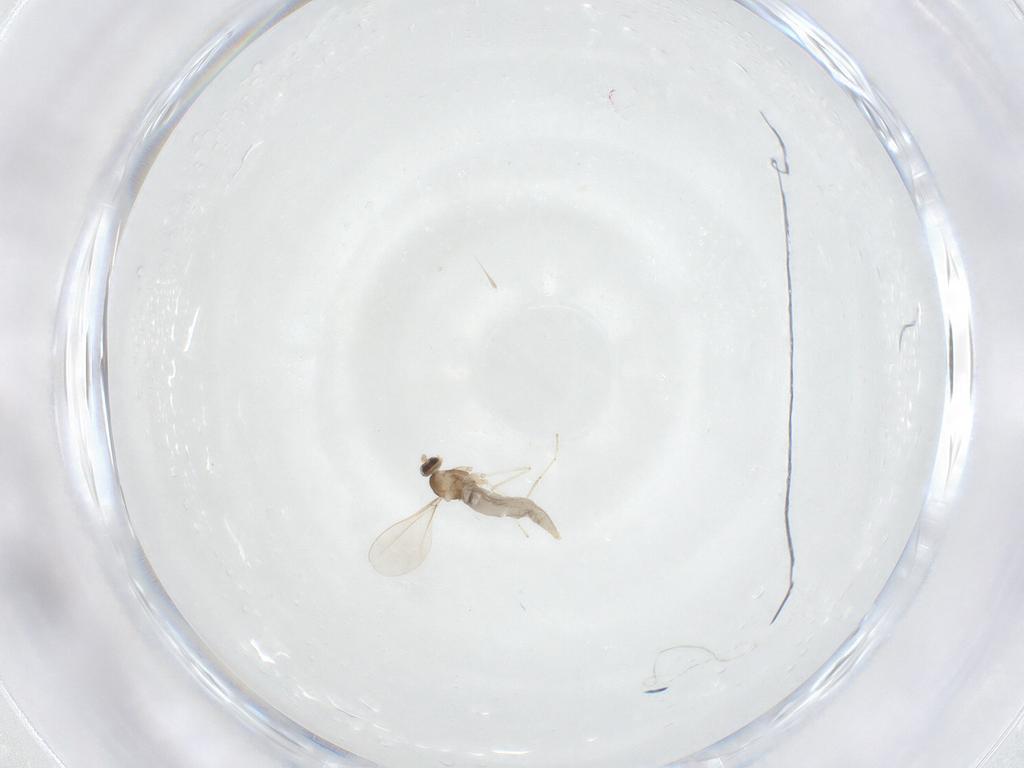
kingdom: Animalia
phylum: Arthropoda
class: Insecta
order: Diptera
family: Cecidomyiidae
